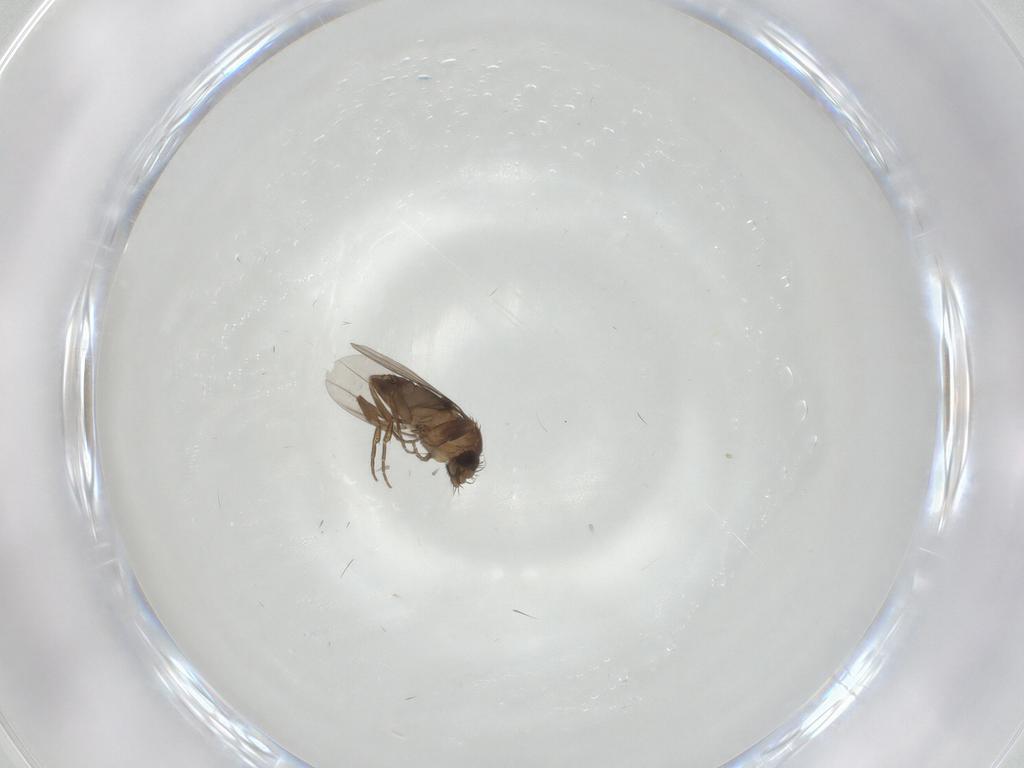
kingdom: Animalia
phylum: Arthropoda
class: Insecta
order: Diptera
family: Phoridae
